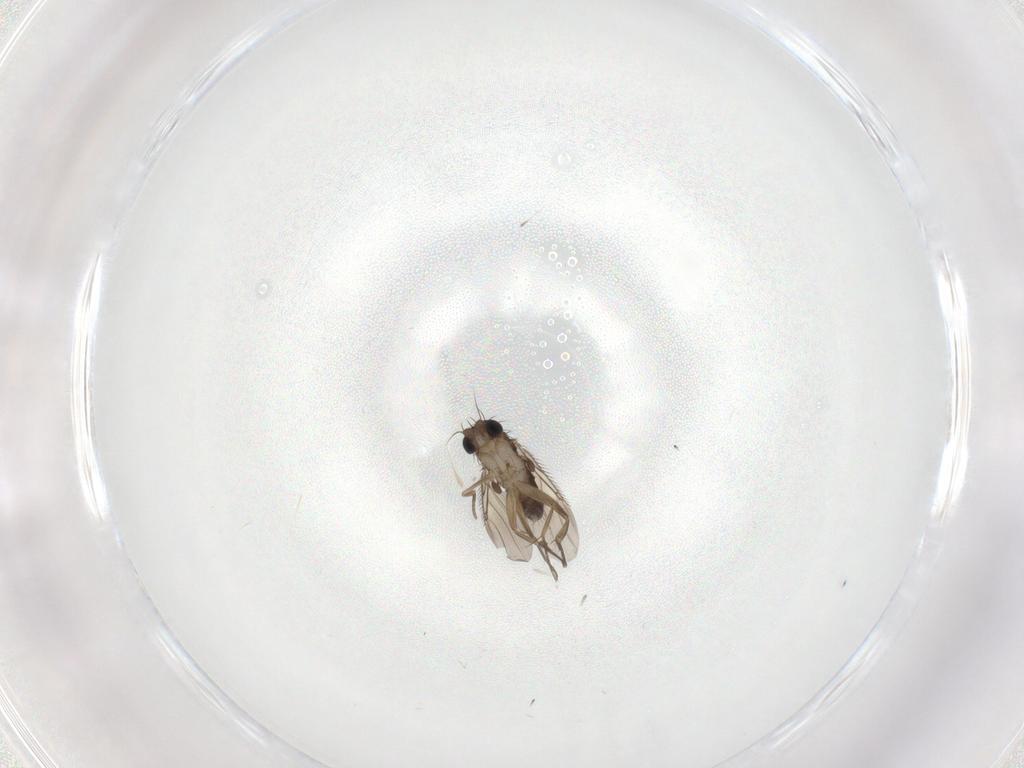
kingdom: Animalia
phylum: Arthropoda
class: Insecta
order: Diptera
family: Phoridae
